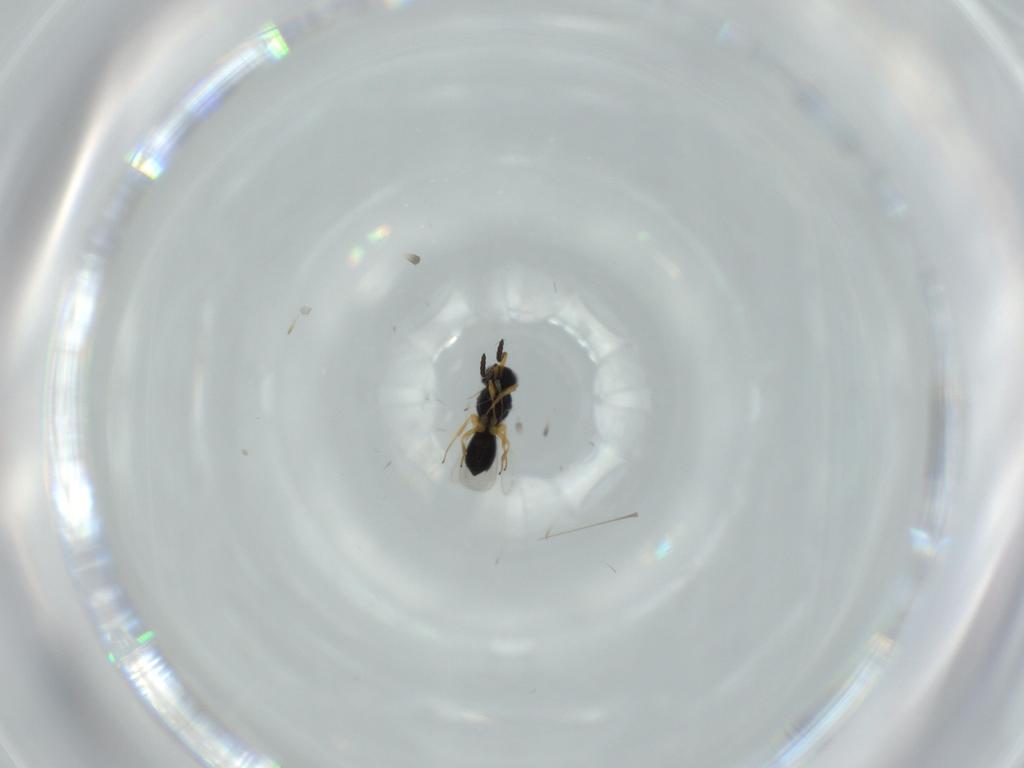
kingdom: Animalia
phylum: Arthropoda
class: Insecta
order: Hymenoptera
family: Scelionidae
